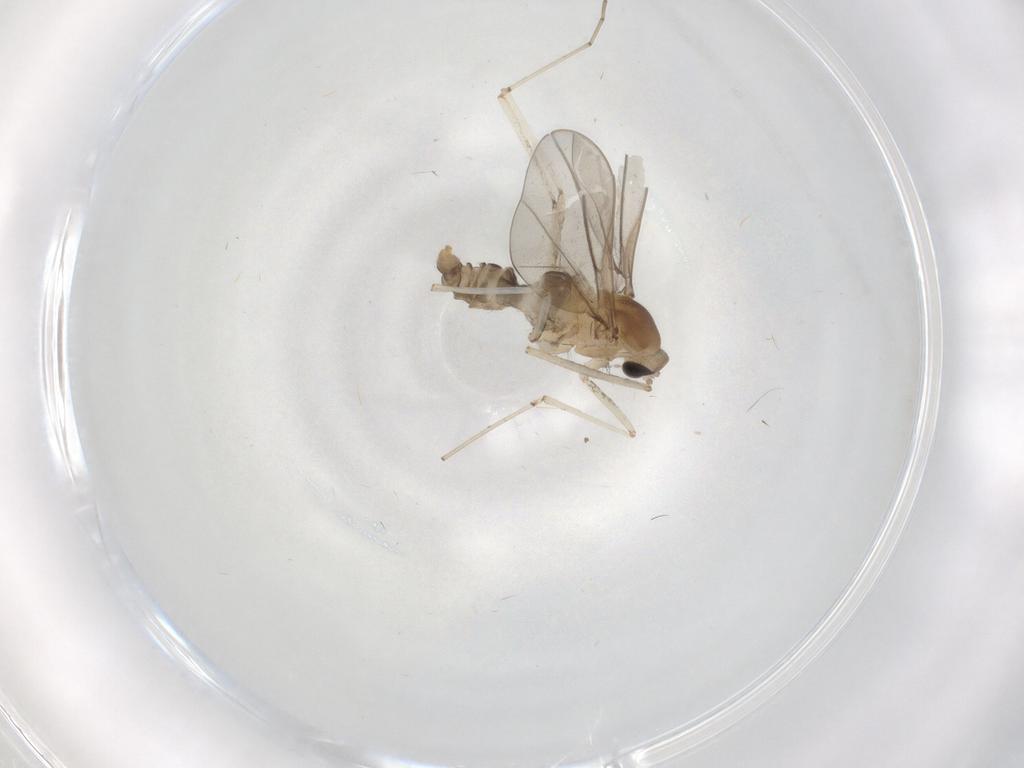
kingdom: Animalia
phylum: Arthropoda
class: Insecta
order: Diptera
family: Cecidomyiidae
